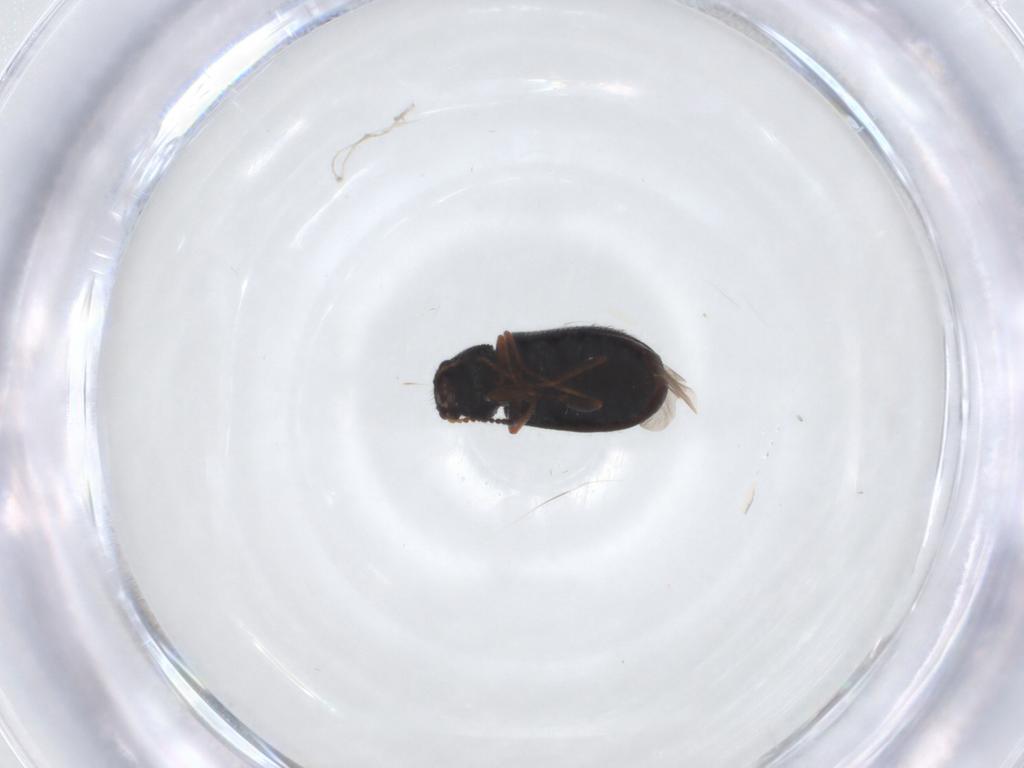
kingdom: Animalia
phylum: Arthropoda
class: Insecta
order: Coleoptera
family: Melyridae
